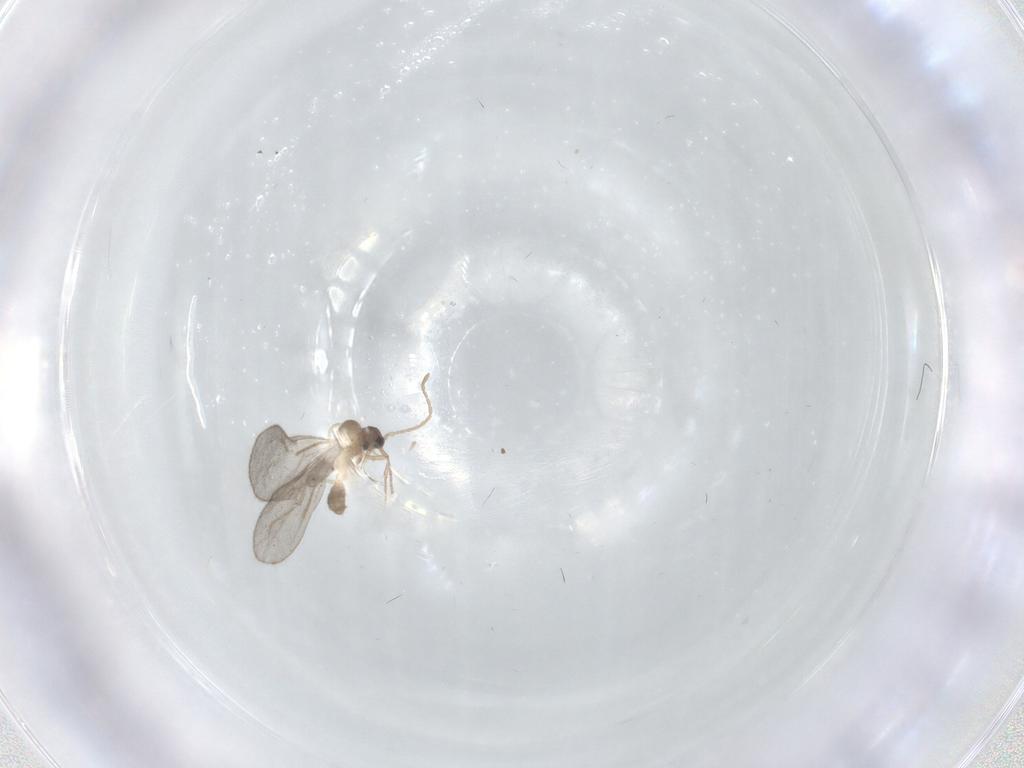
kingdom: Animalia
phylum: Arthropoda
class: Insecta
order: Hymenoptera
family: Formicidae
